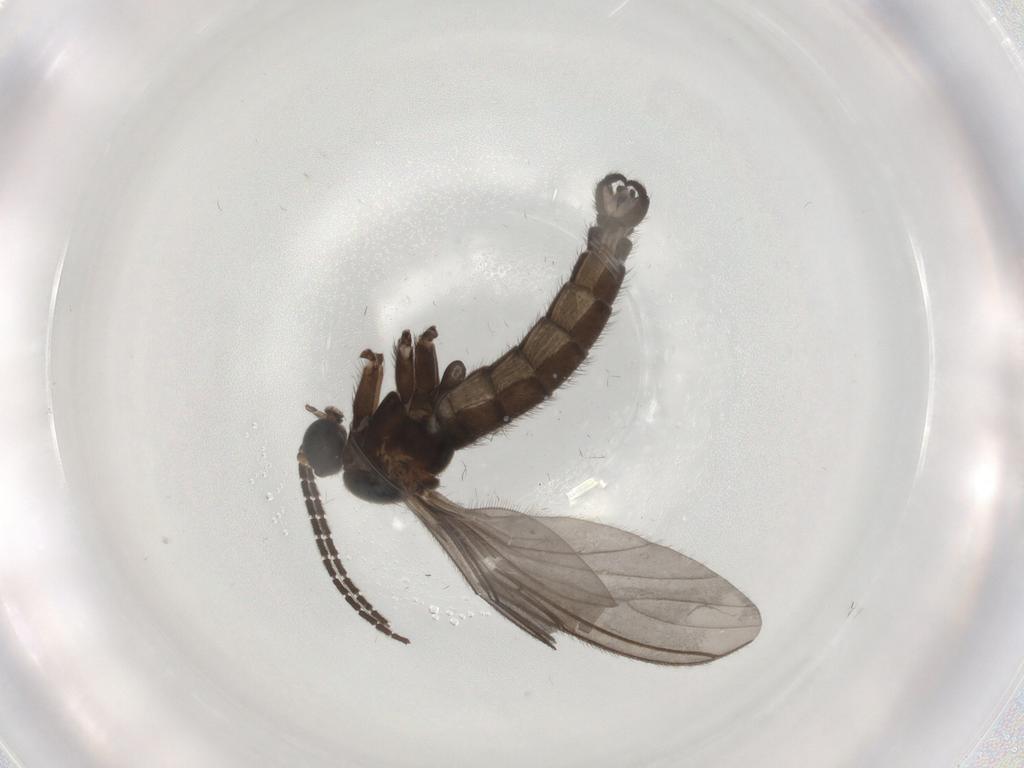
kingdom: Animalia
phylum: Arthropoda
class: Insecta
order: Diptera
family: Sciaridae
